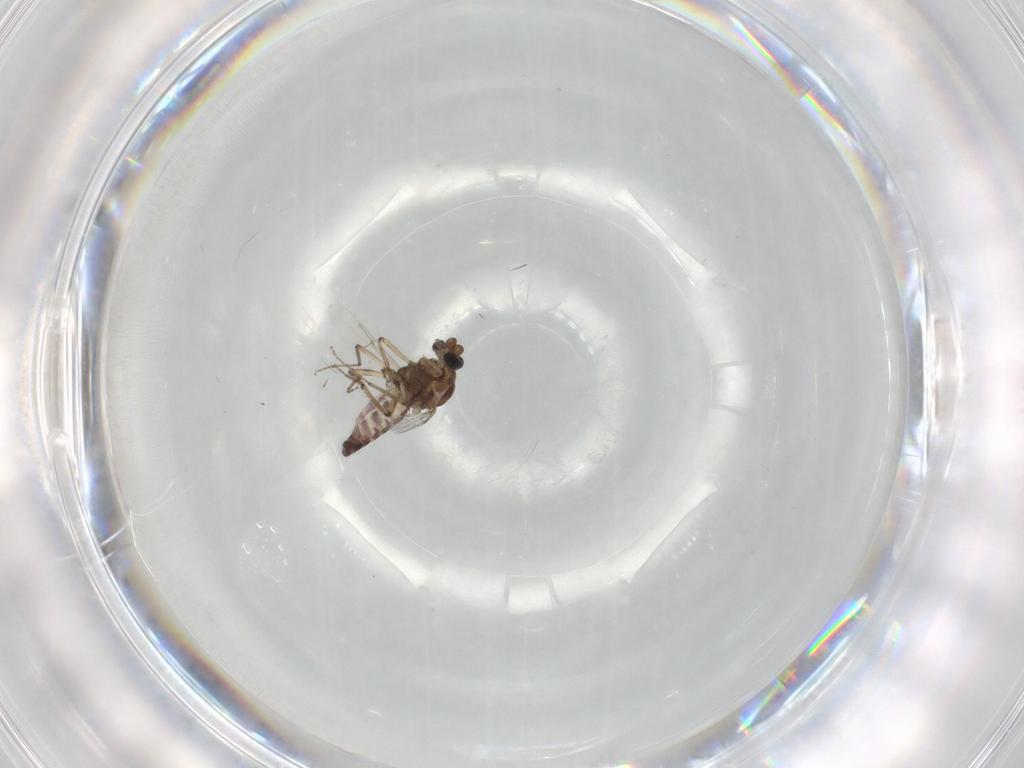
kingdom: Animalia
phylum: Arthropoda
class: Insecta
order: Diptera
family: Ceratopogonidae
